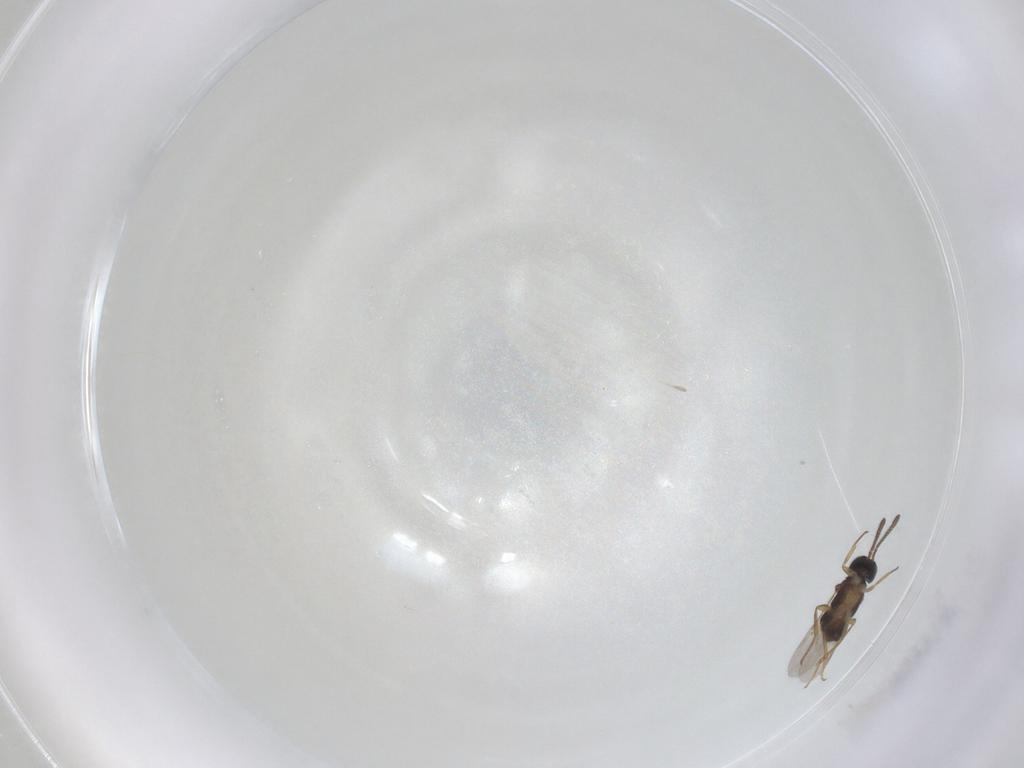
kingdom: Animalia
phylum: Arthropoda
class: Insecta
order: Hymenoptera
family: Encyrtidae
